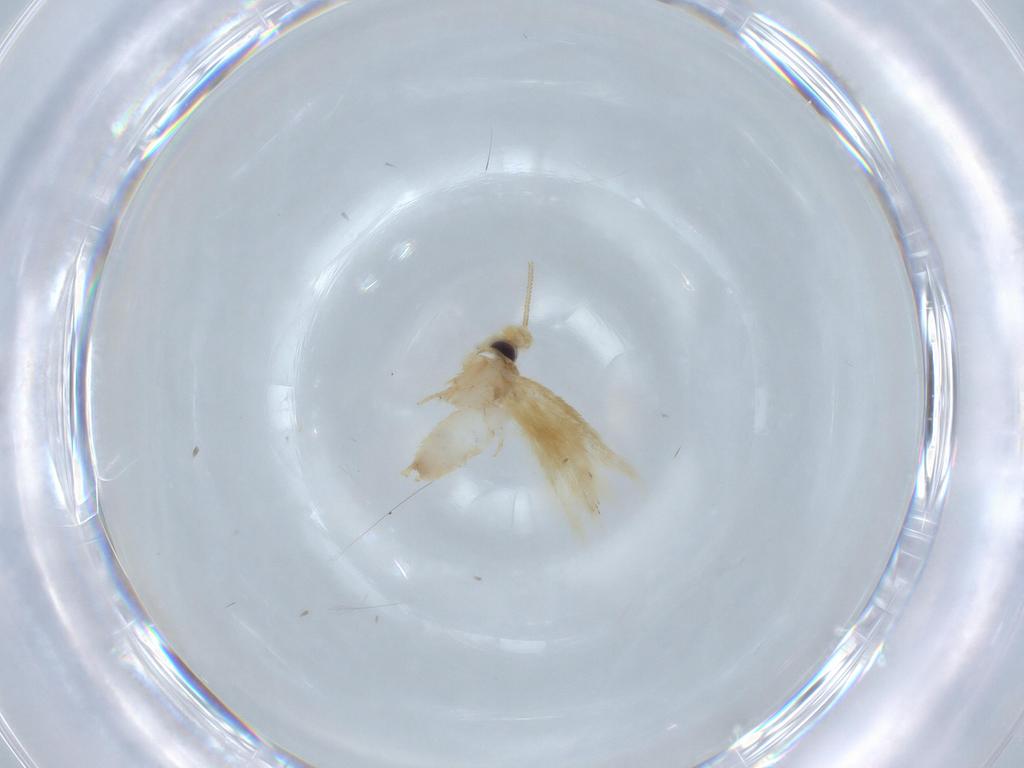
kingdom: Animalia
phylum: Arthropoda
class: Insecta
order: Lepidoptera
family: Nepticulidae
